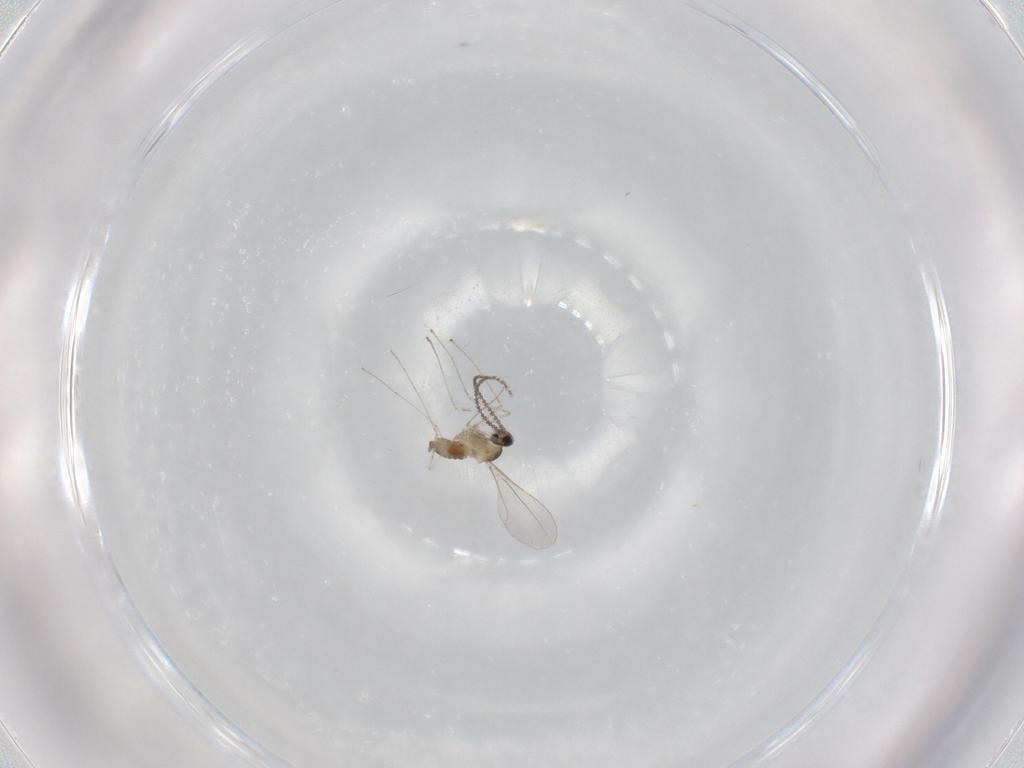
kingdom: Animalia
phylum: Arthropoda
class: Insecta
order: Diptera
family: Cecidomyiidae
